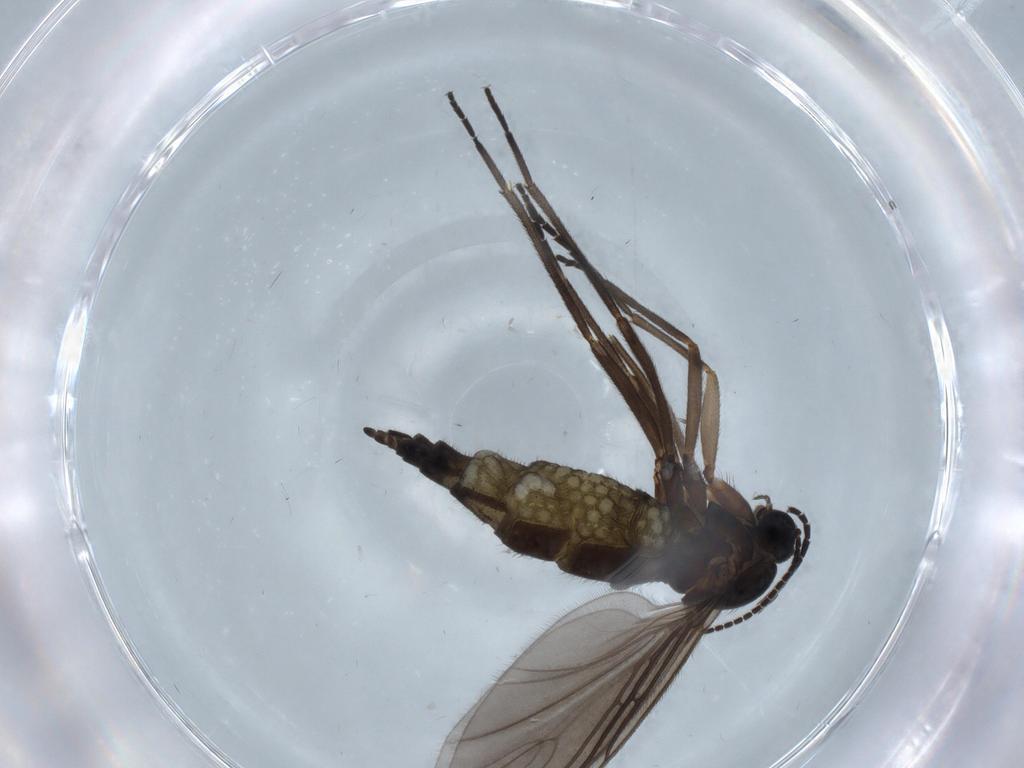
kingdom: Animalia
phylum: Arthropoda
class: Insecta
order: Diptera
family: Sciaridae
